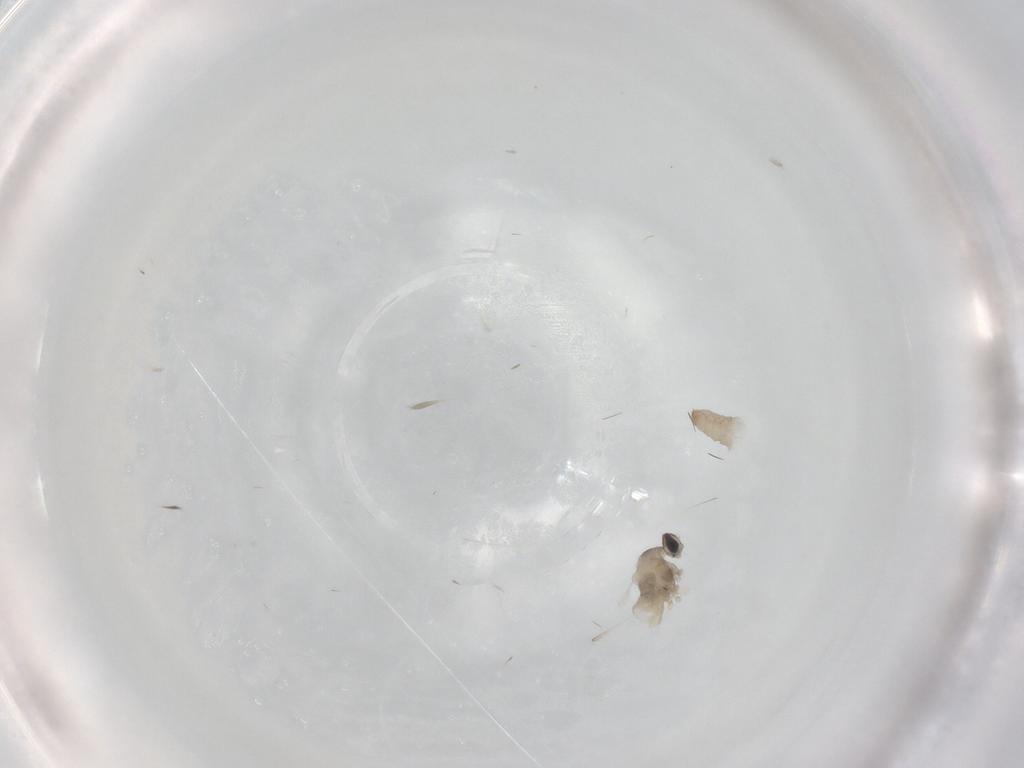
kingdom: Animalia
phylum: Arthropoda
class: Insecta
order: Diptera
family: Cecidomyiidae
